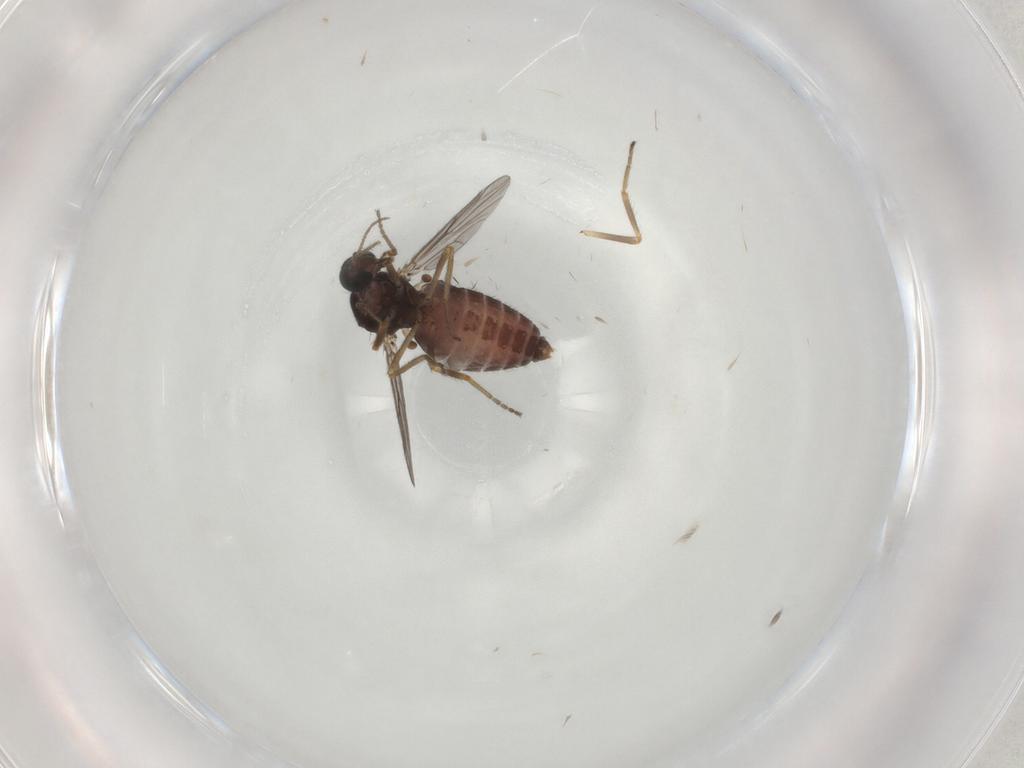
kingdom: Animalia
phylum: Arthropoda
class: Insecta
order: Diptera
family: Ceratopogonidae
